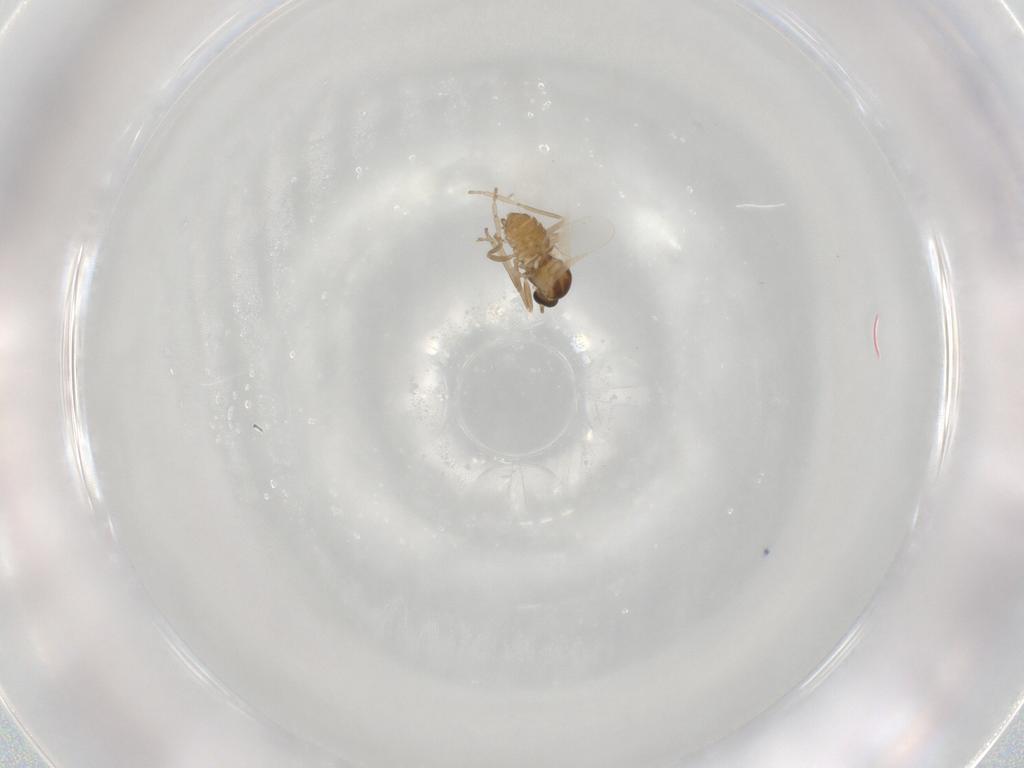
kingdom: Animalia
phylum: Arthropoda
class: Insecta
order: Diptera
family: Cecidomyiidae
